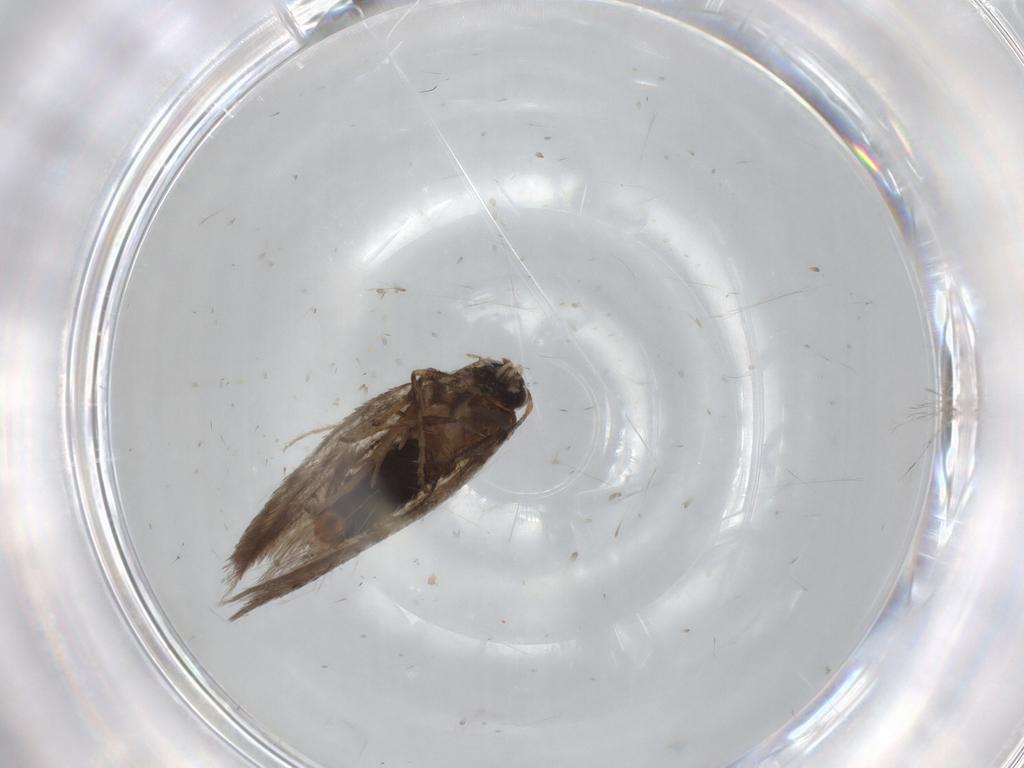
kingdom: Animalia
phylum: Arthropoda
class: Insecta
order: Lepidoptera
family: Nepticulidae
